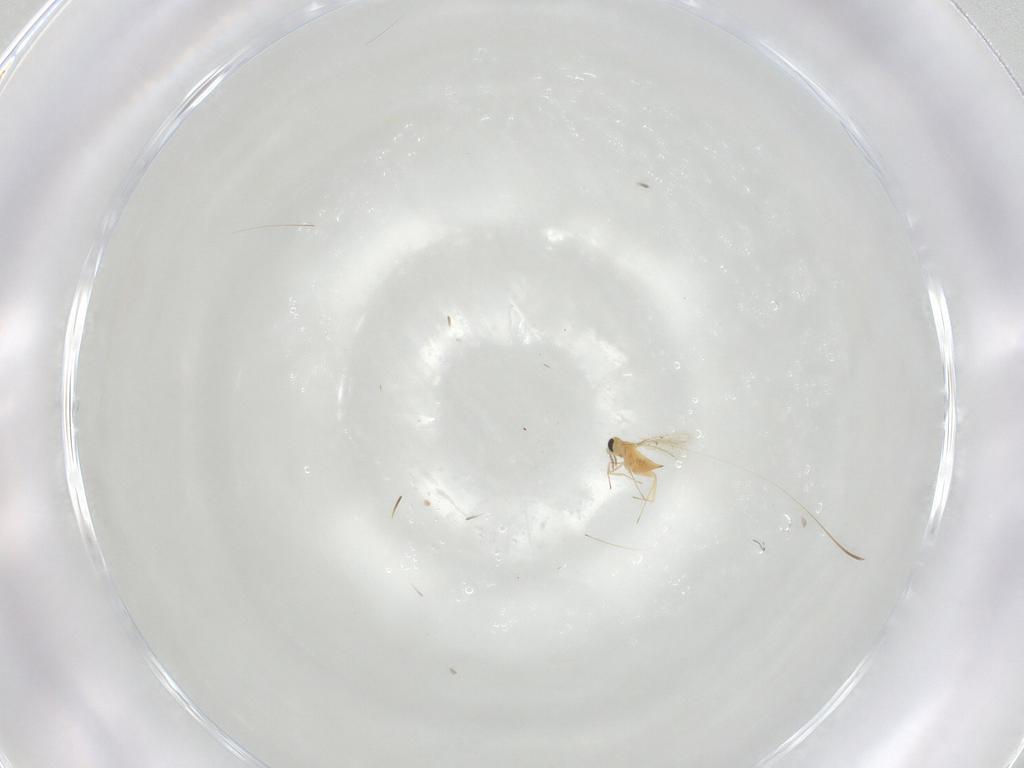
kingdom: Animalia
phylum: Arthropoda
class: Insecta
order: Hymenoptera
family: Trichogrammatidae
